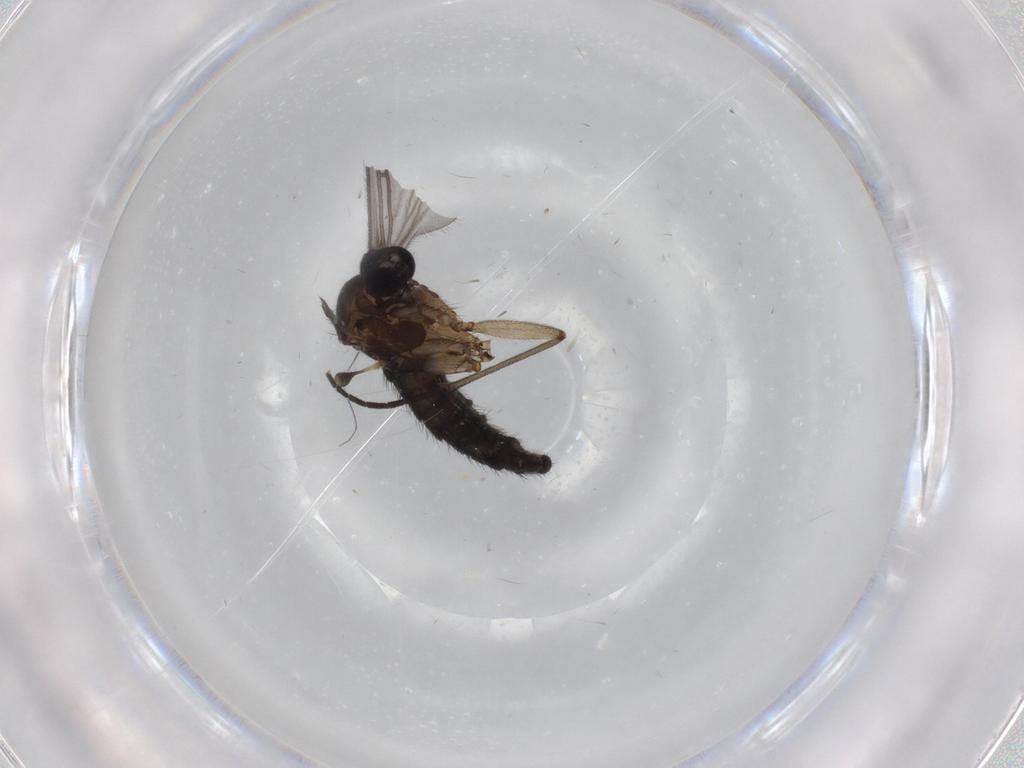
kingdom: Animalia
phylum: Arthropoda
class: Insecta
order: Diptera
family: Sciaridae
